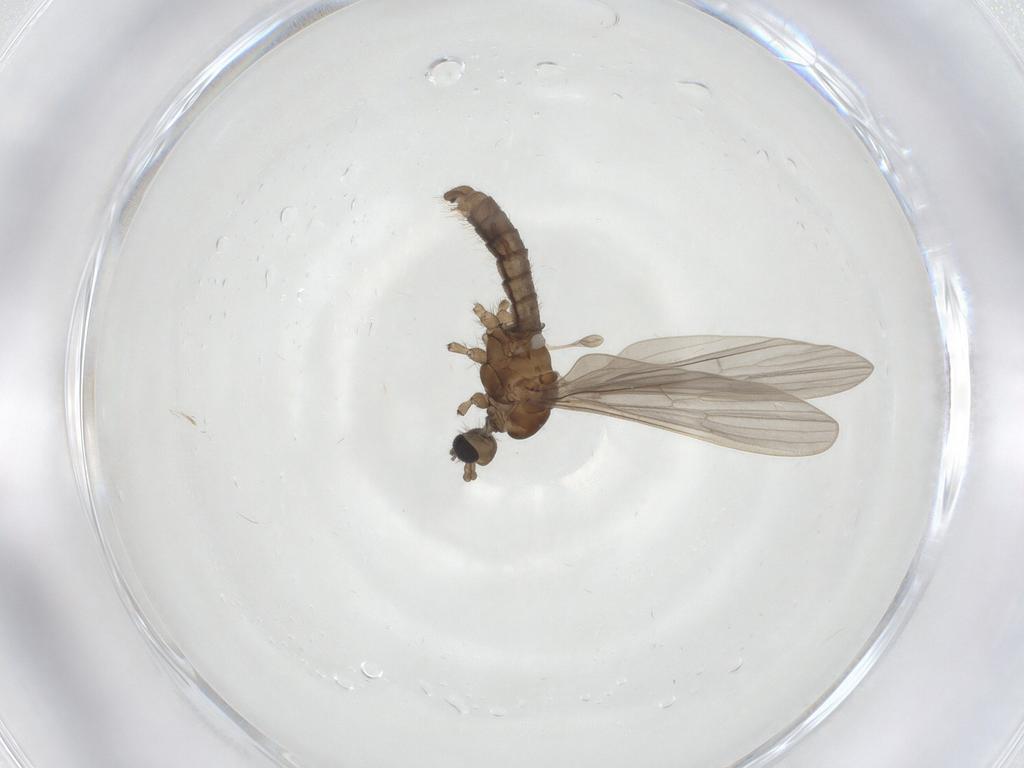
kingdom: Animalia
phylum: Arthropoda
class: Insecta
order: Diptera
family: Limoniidae
